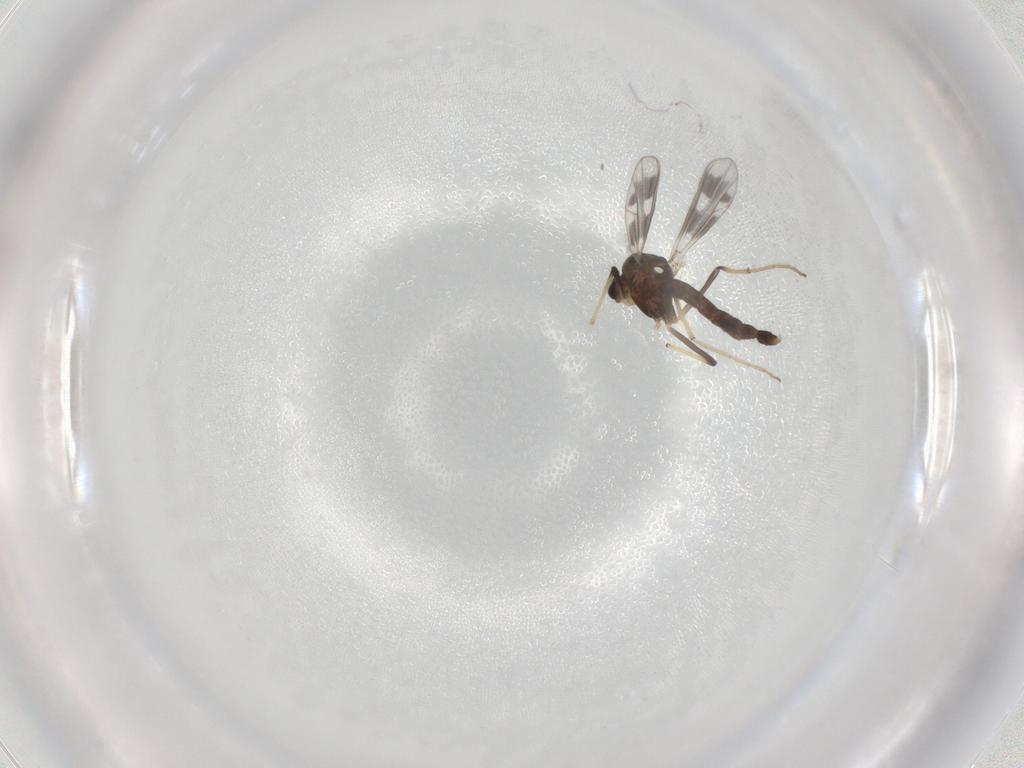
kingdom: Animalia
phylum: Arthropoda
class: Insecta
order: Diptera
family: Chironomidae
